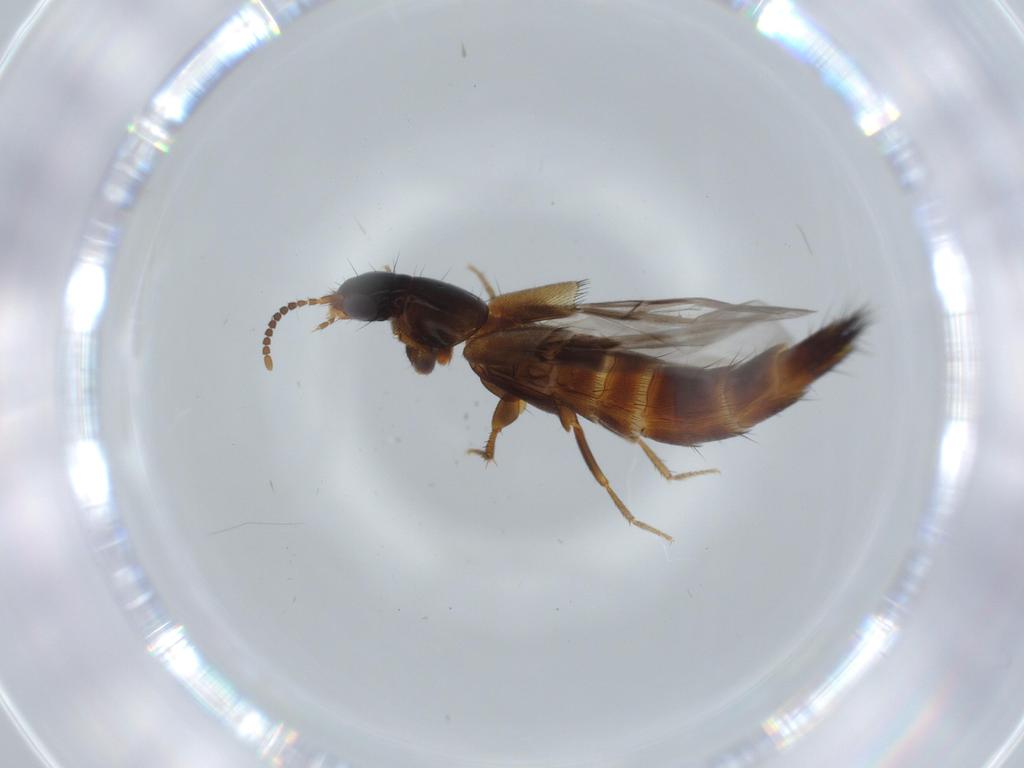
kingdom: Animalia
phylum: Arthropoda
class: Insecta
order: Coleoptera
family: Staphylinidae
